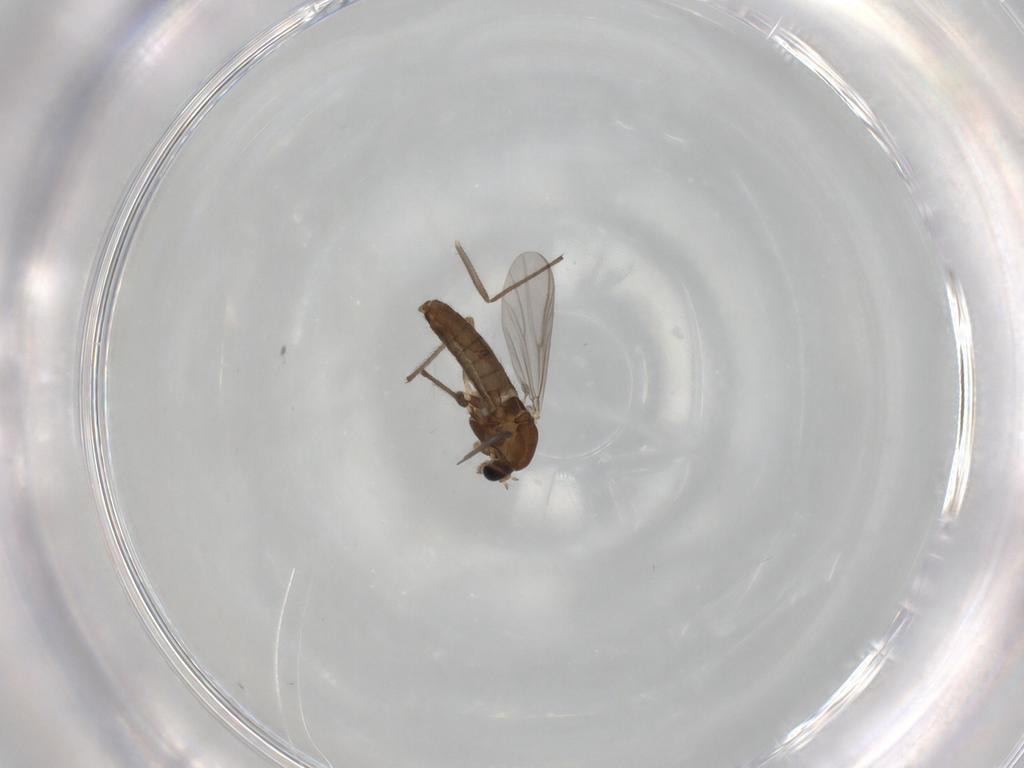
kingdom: Animalia
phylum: Arthropoda
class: Insecta
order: Diptera
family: Chironomidae
